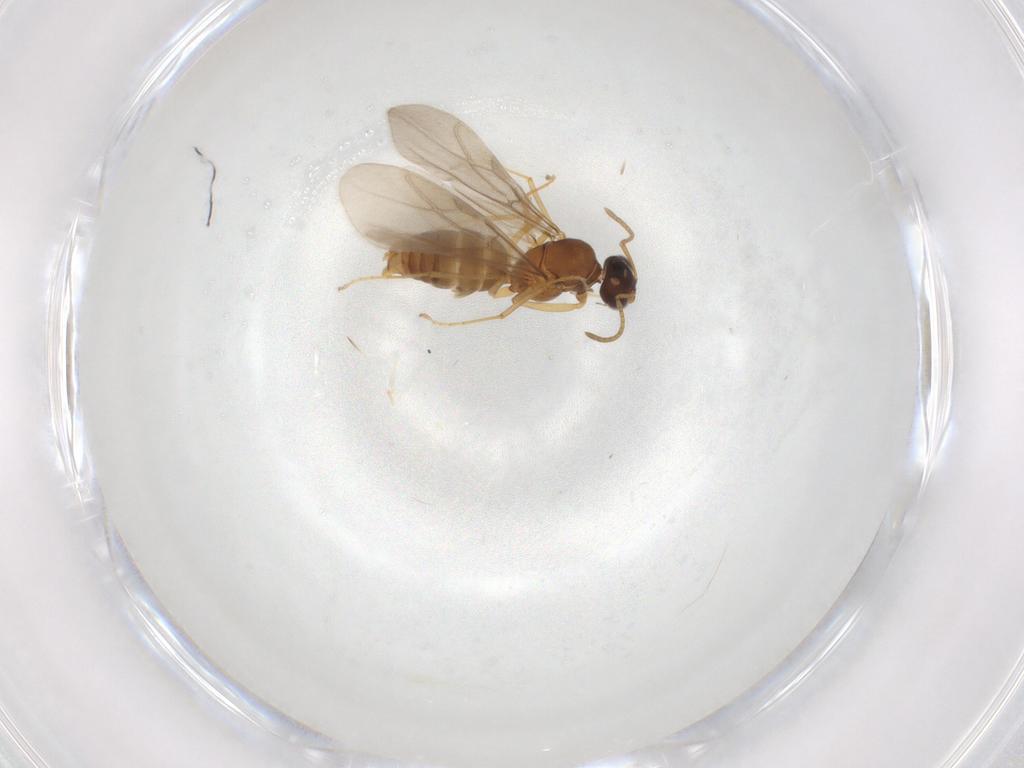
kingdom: Animalia
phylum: Arthropoda
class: Insecta
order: Hymenoptera
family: Formicidae
